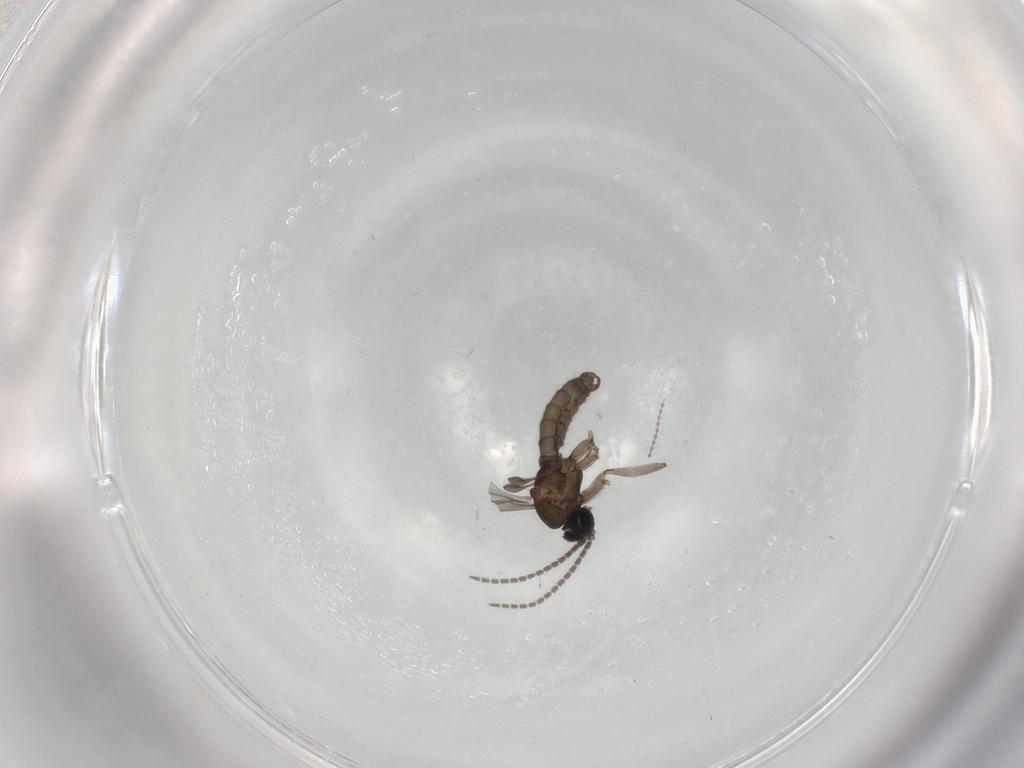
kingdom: Animalia
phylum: Arthropoda
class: Insecta
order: Diptera
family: Sciaridae
